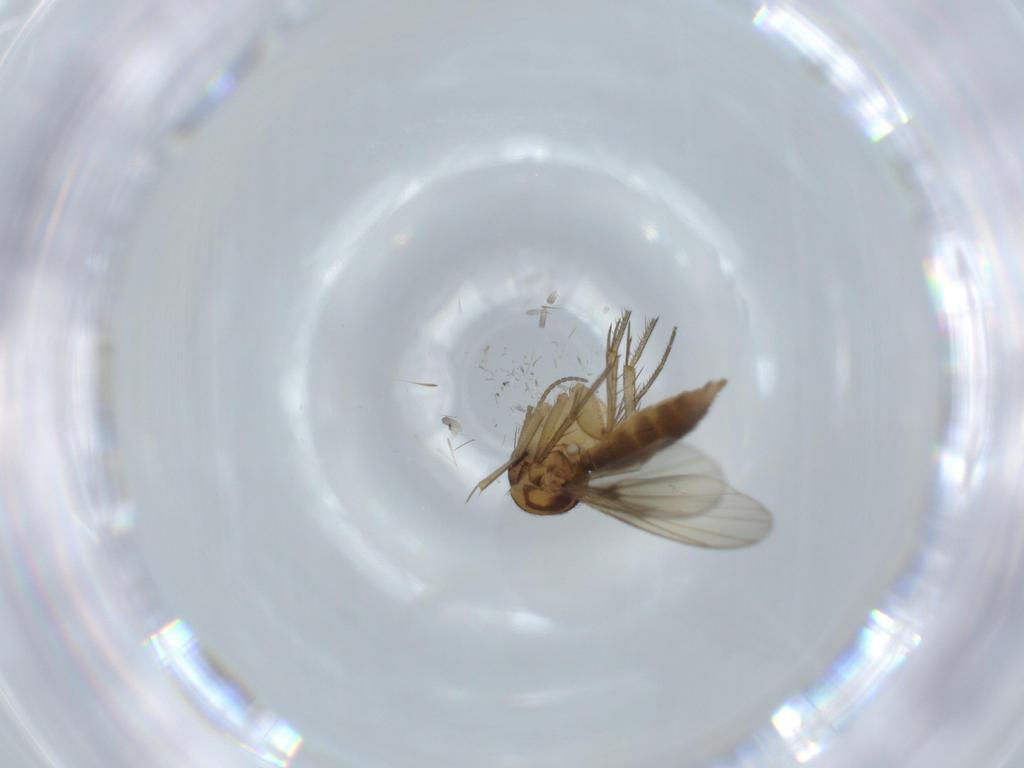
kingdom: Animalia
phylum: Arthropoda
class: Insecta
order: Diptera
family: Mycetophilidae
